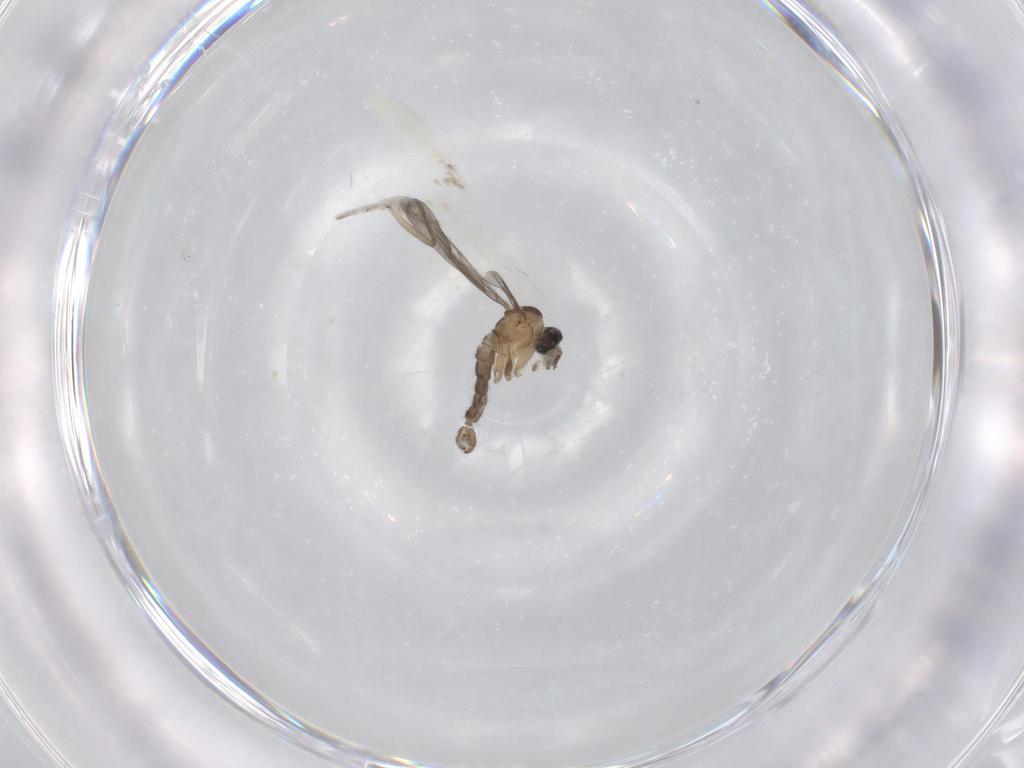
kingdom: Animalia
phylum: Arthropoda
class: Insecta
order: Diptera
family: Sciaridae
